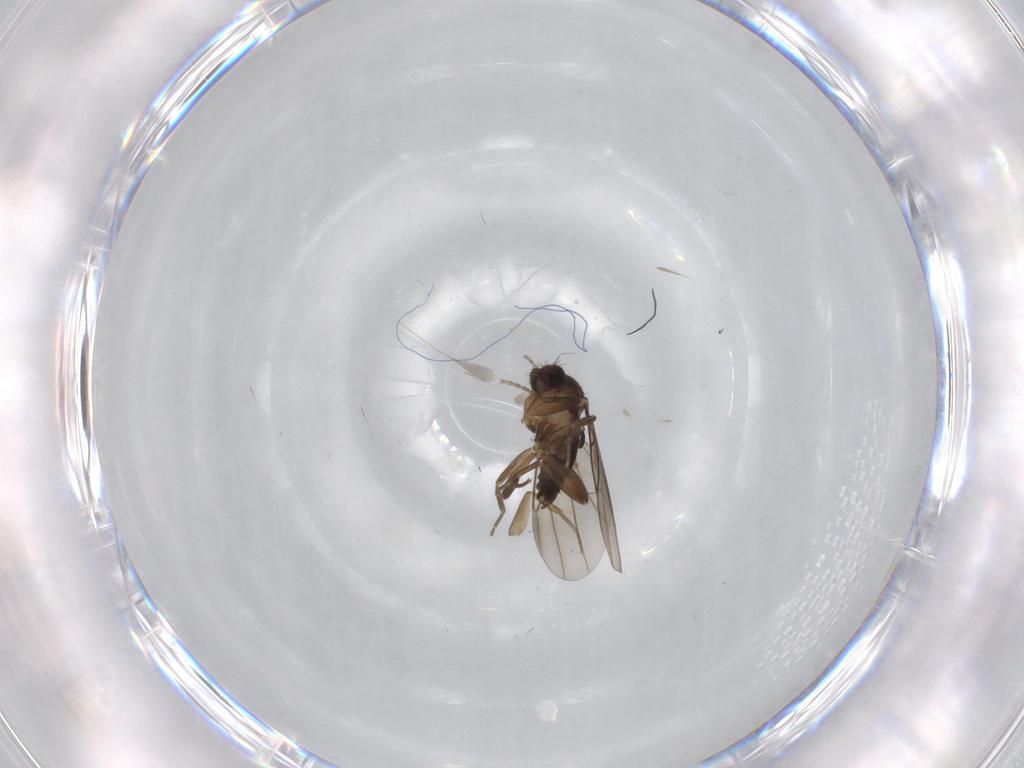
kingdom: Animalia
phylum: Arthropoda
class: Insecta
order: Diptera
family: Phoridae
